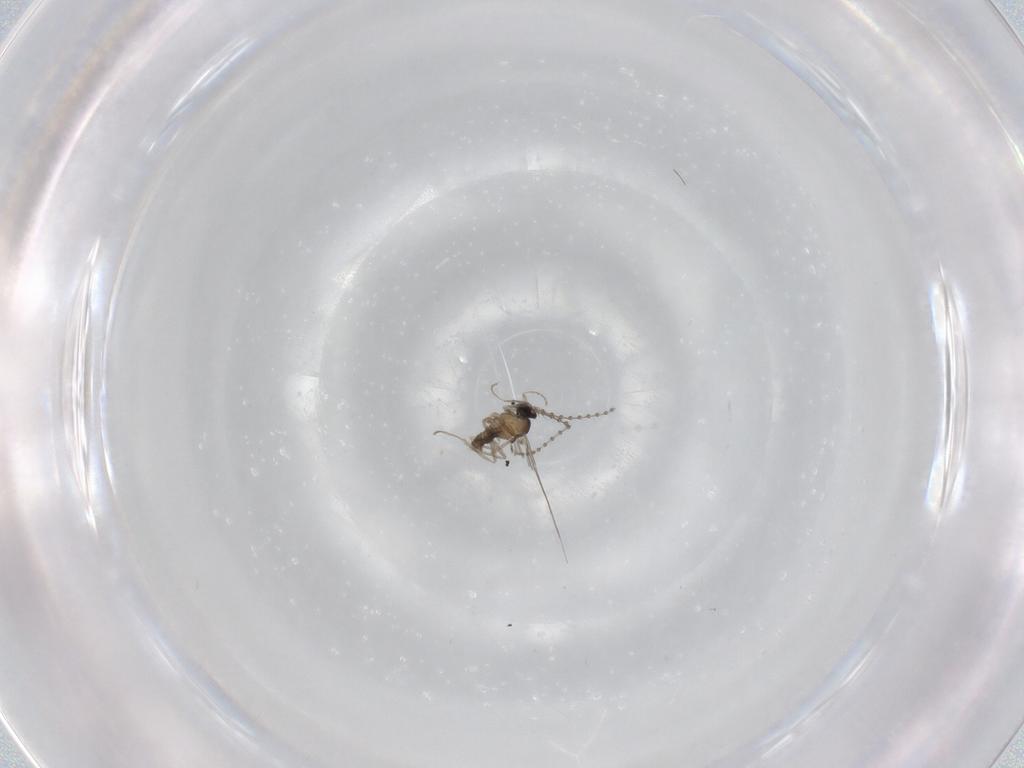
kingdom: Animalia
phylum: Arthropoda
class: Insecta
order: Diptera
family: Cecidomyiidae
